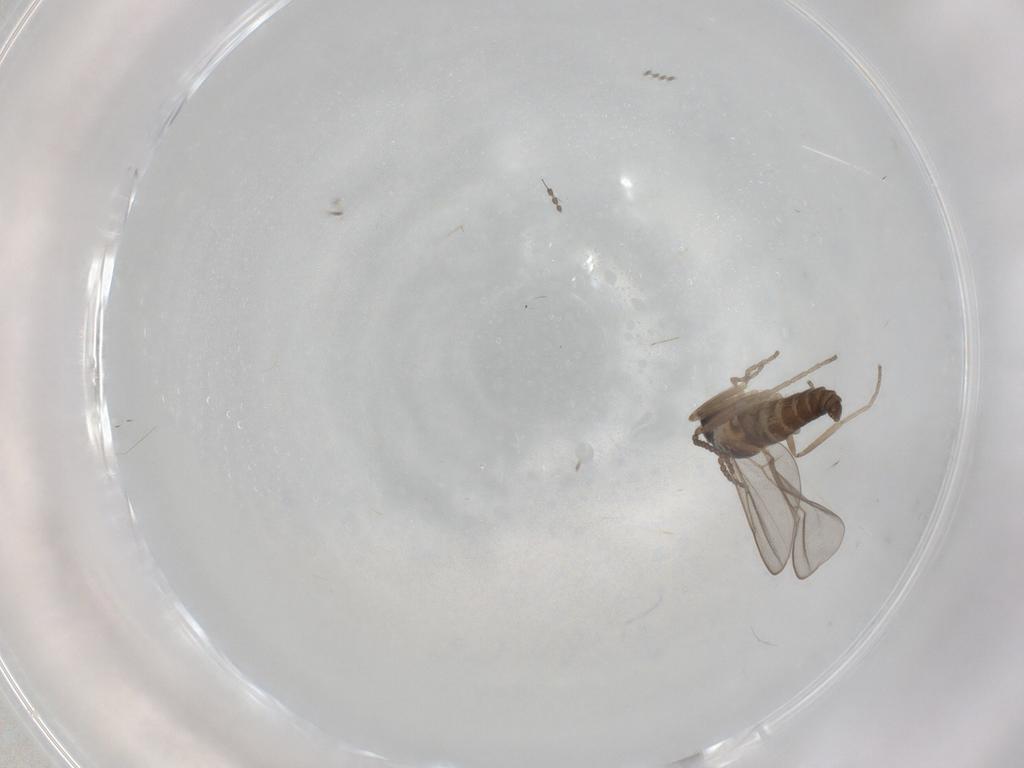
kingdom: Animalia
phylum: Arthropoda
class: Insecta
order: Diptera
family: Cecidomyiidae
